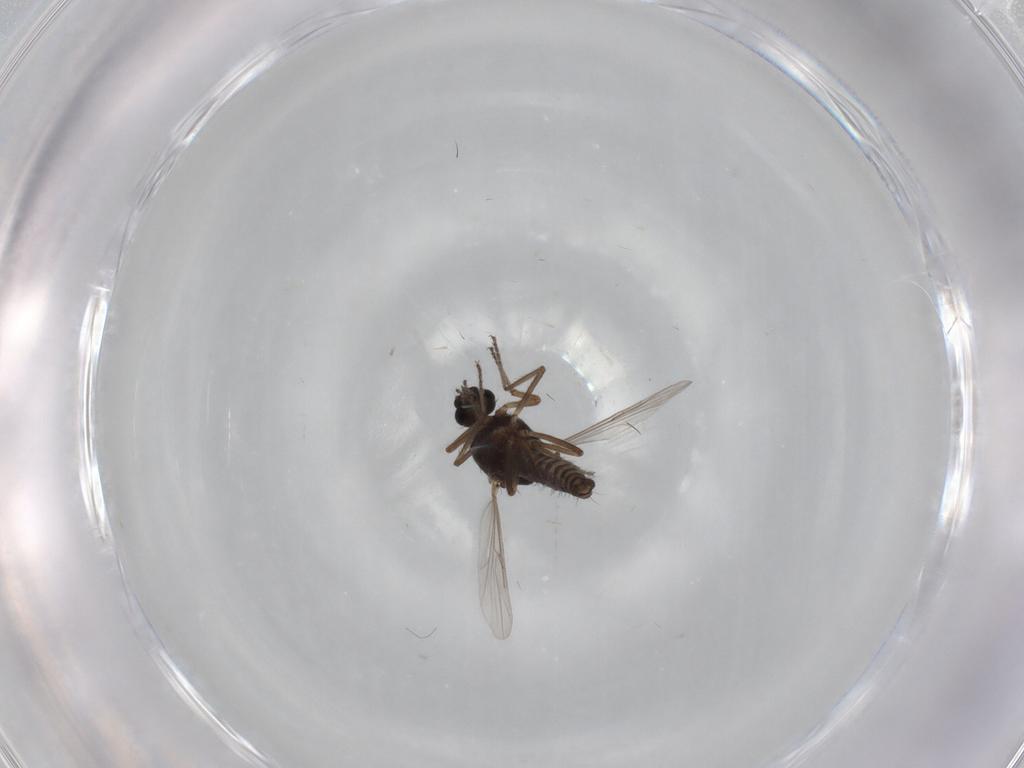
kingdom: Animalia
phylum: Arthropoda
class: Insecta
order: Diptera
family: Ceratopogonidae
